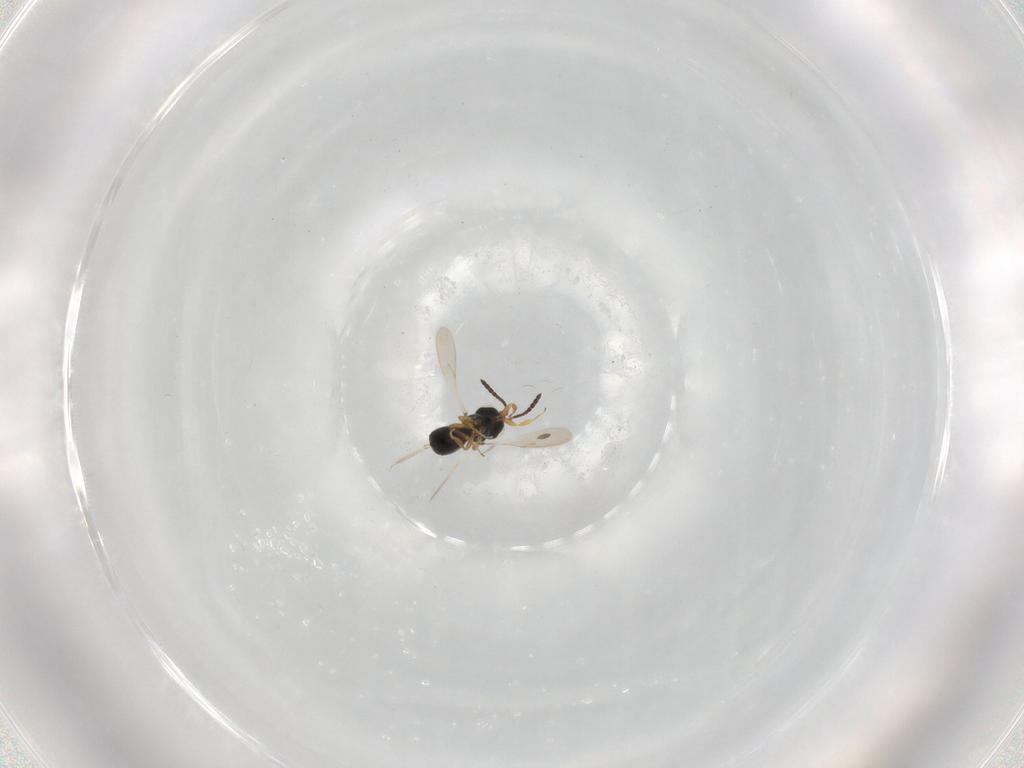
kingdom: Animalia
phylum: Arthropoda
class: Insecta
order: Hymenoptera
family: Scelionidae
